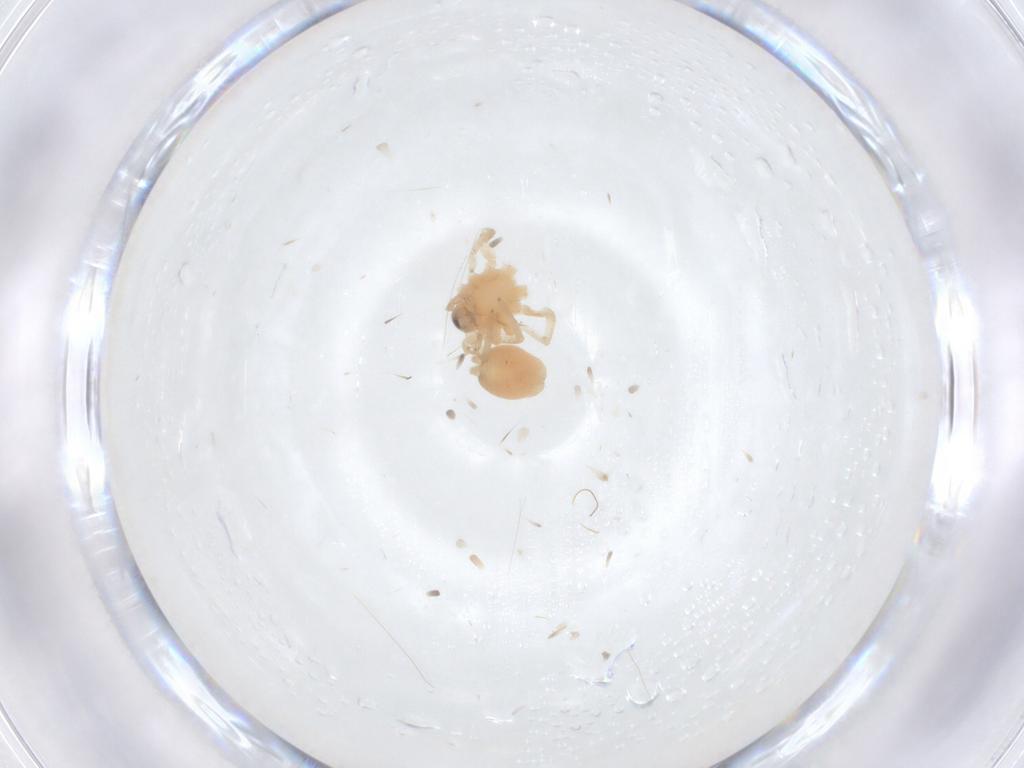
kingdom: Animalia
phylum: Arthropoda
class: Arachnida
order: Araneae
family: Corinnidae
